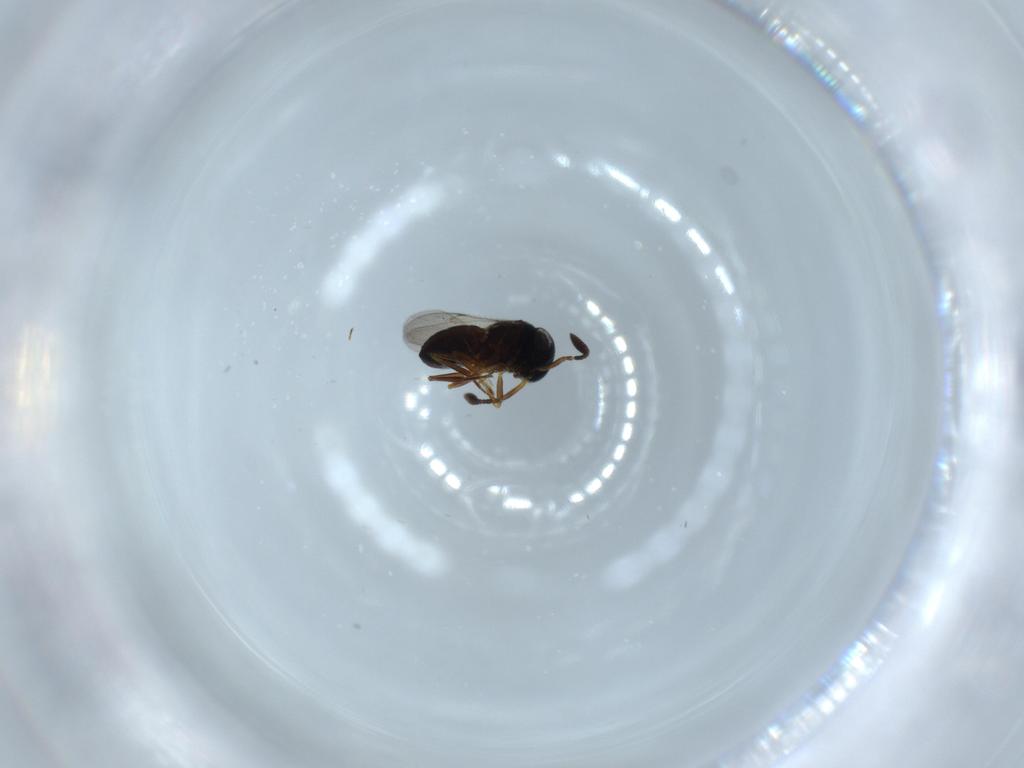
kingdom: Animalia
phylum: Arthropoda
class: Insecta
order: Hymenoptera
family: Scelionidae
